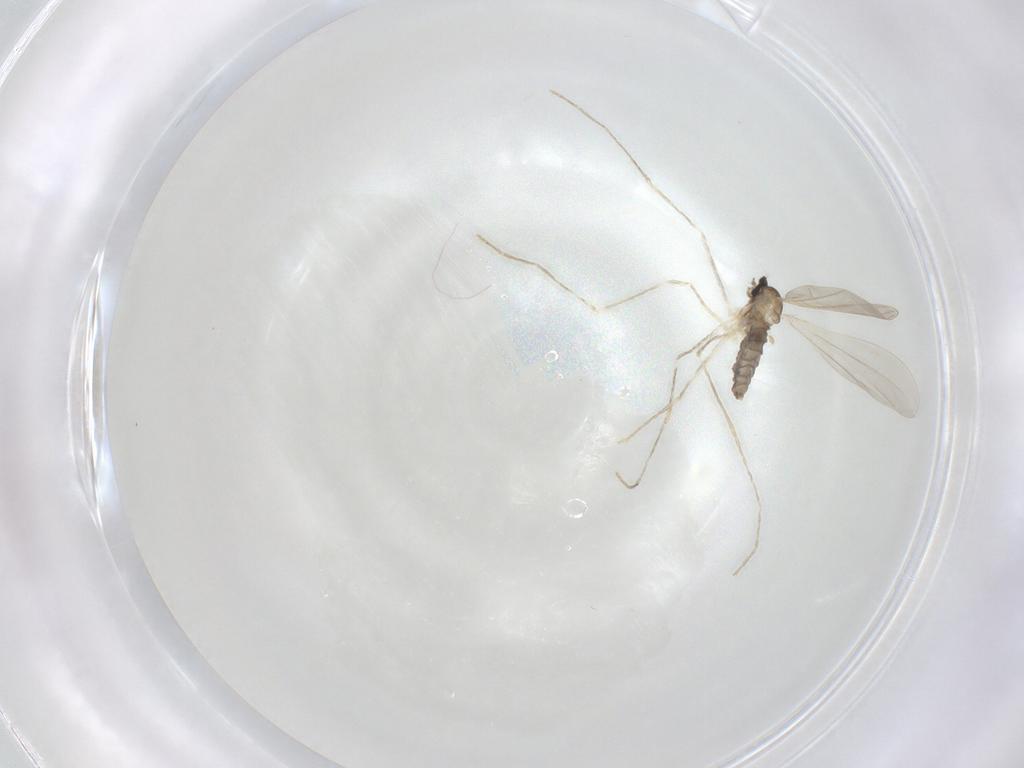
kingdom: Animalia
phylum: Arthropoda
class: Insecta
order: Diptera
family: Cecidomyiidae
